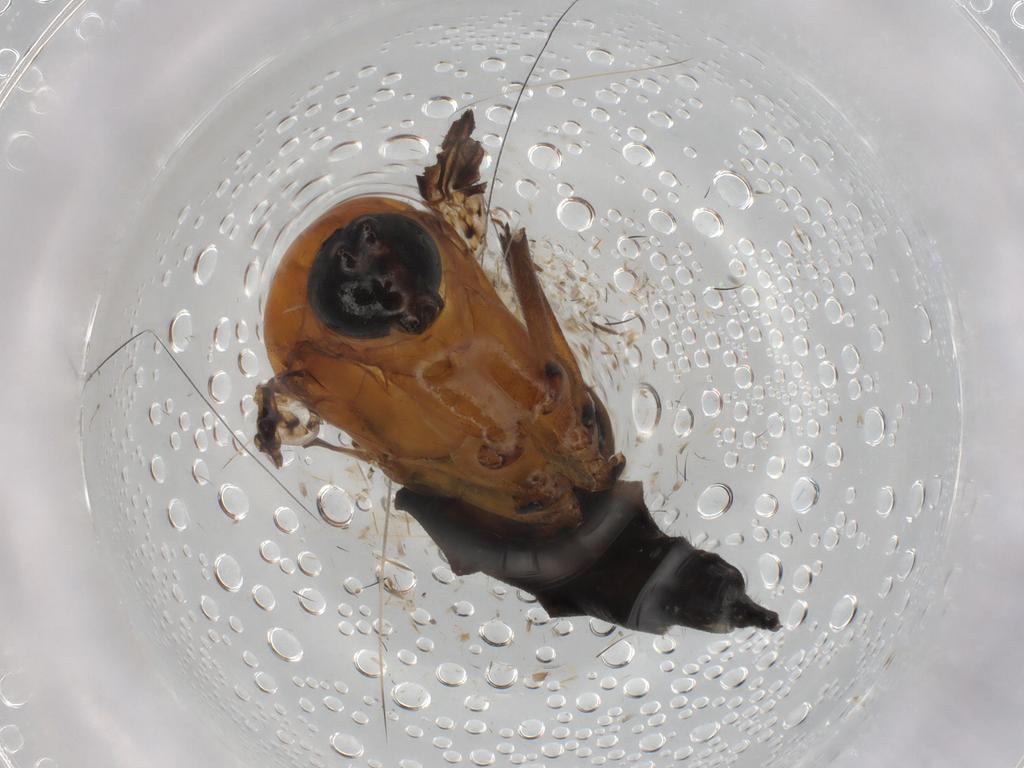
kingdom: Animalia
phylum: Arthropoda
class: Insecta
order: Diptera
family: Sciaridae
